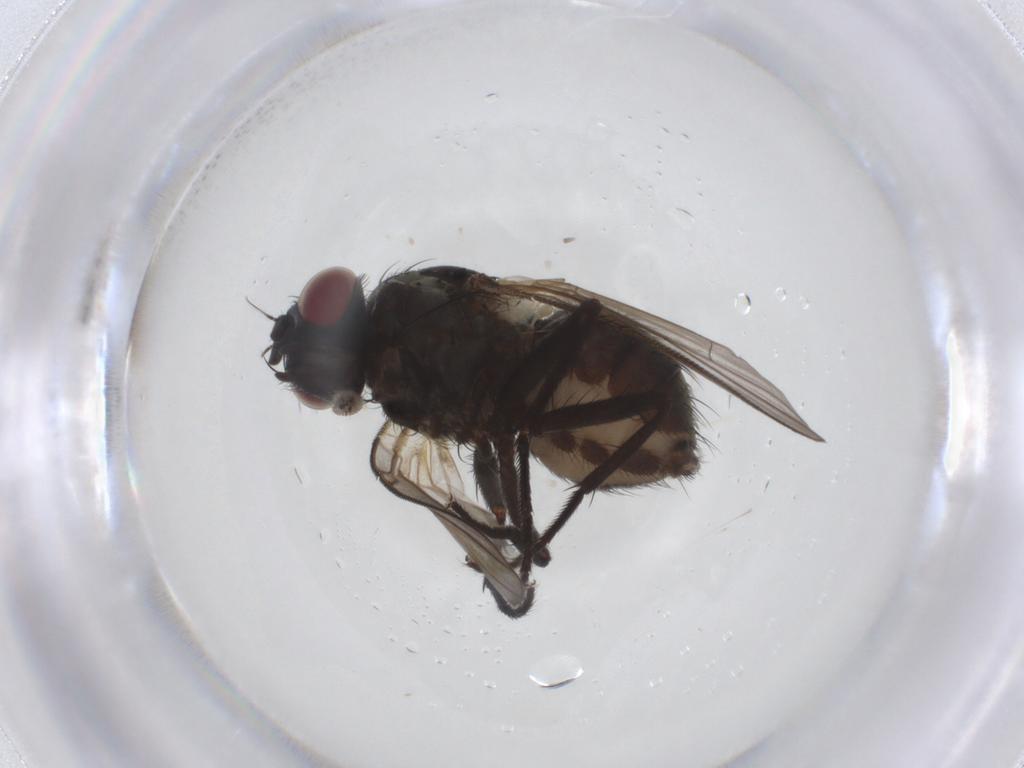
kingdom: Animalia
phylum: Arthropoda
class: Insecta
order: Diptera
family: Muscidae
